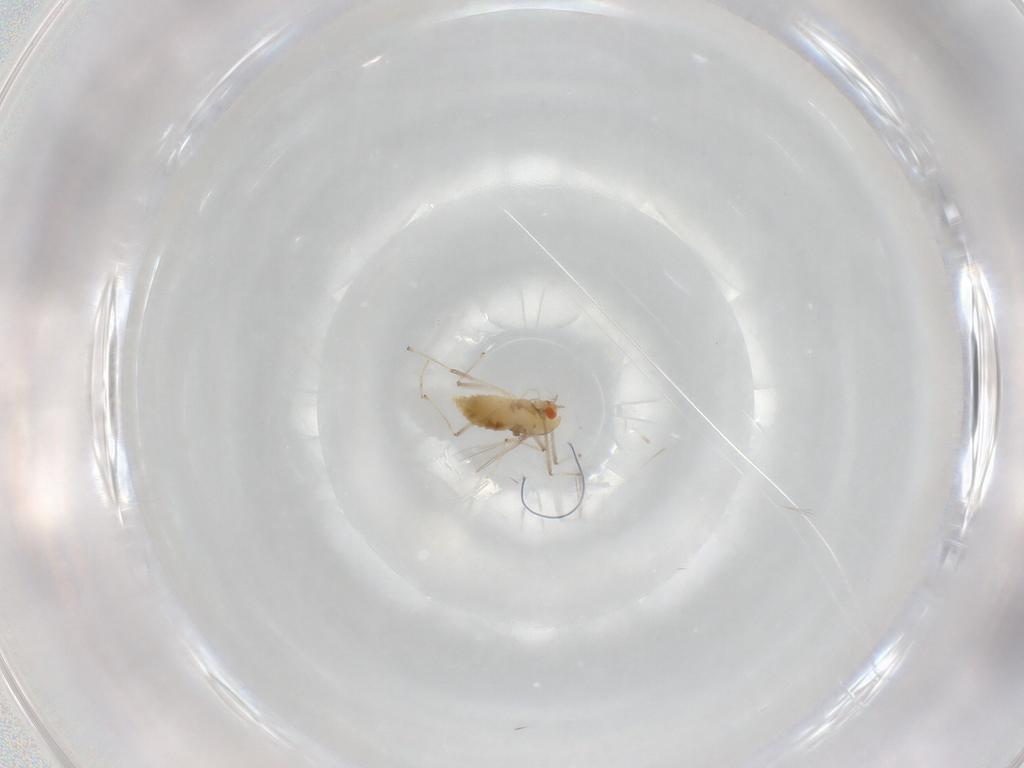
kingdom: Animalia
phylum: Arthropoda
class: Insecta
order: Diptera
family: Chironomidae
